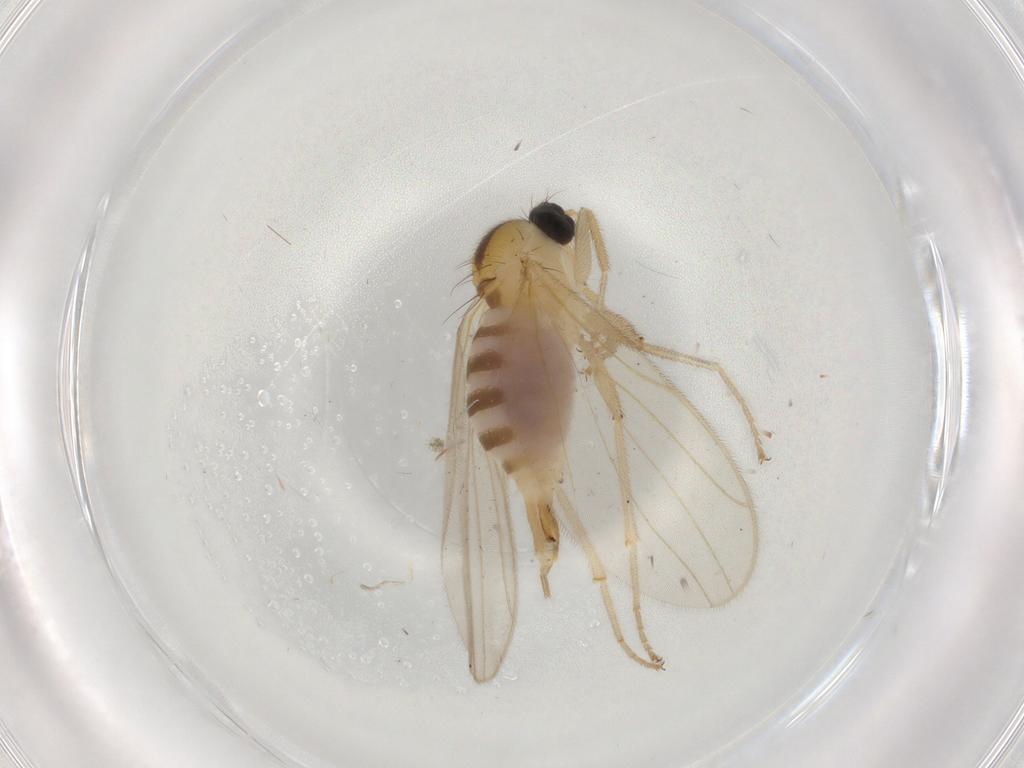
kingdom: Animalia
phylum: Arthropoda
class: Insecta
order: Diptera
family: Chironomidae
